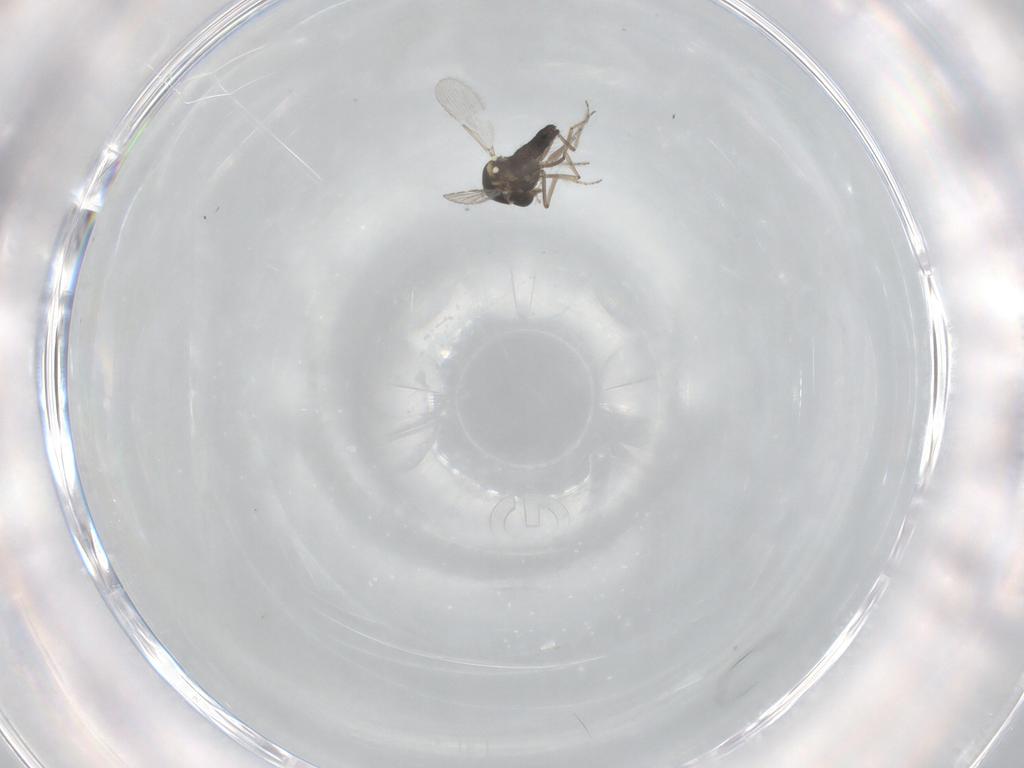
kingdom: Animalia
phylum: Arthropoda
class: Insecta
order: Diptera
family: Ceratopogonidae
